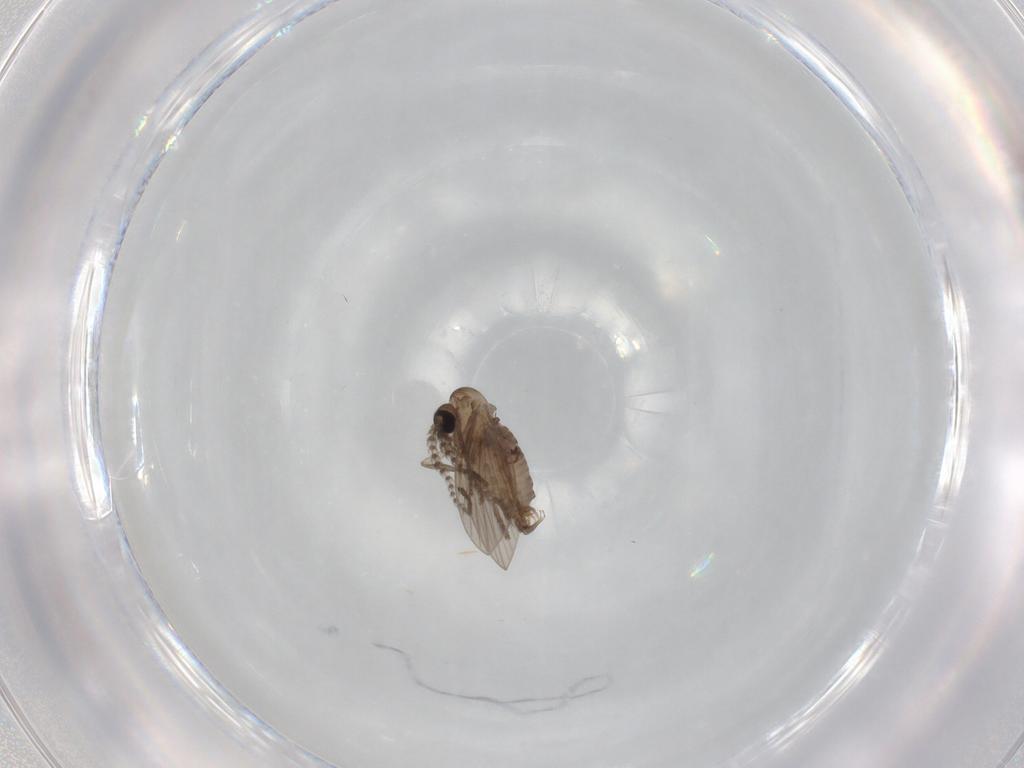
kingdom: Animalia
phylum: Arthropoda
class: Insecta
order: Diptera
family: Psychodidae
